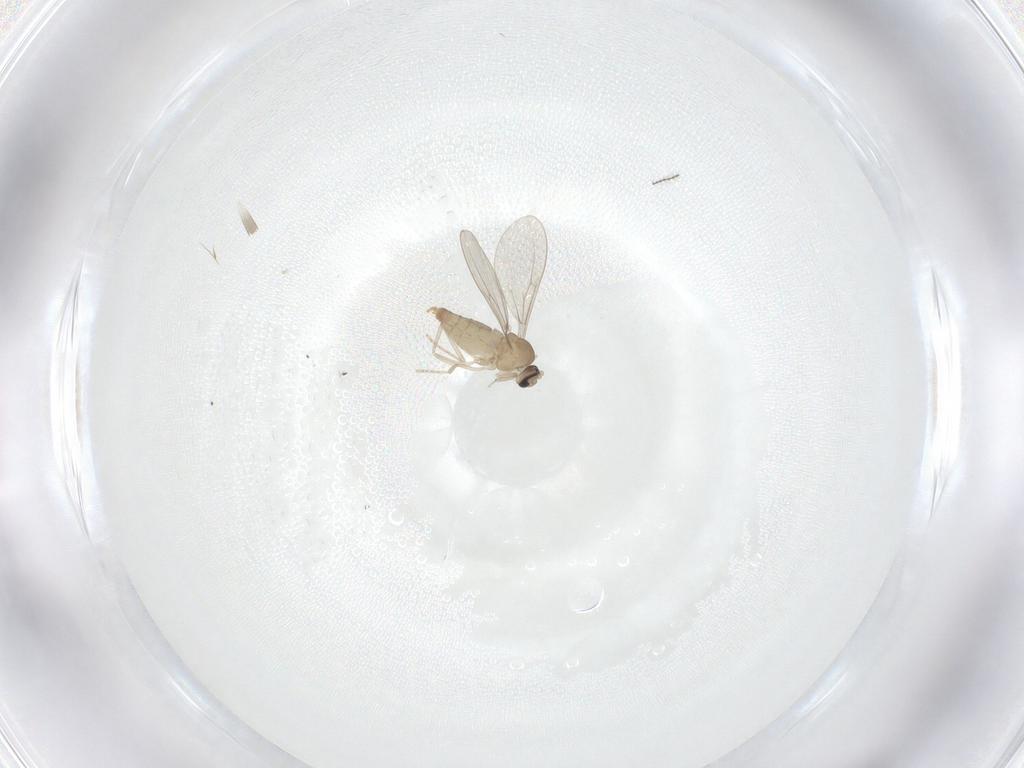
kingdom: Animalia
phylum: Arthropoda
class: Insecta
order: Diptera
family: Cecidomyiidae
